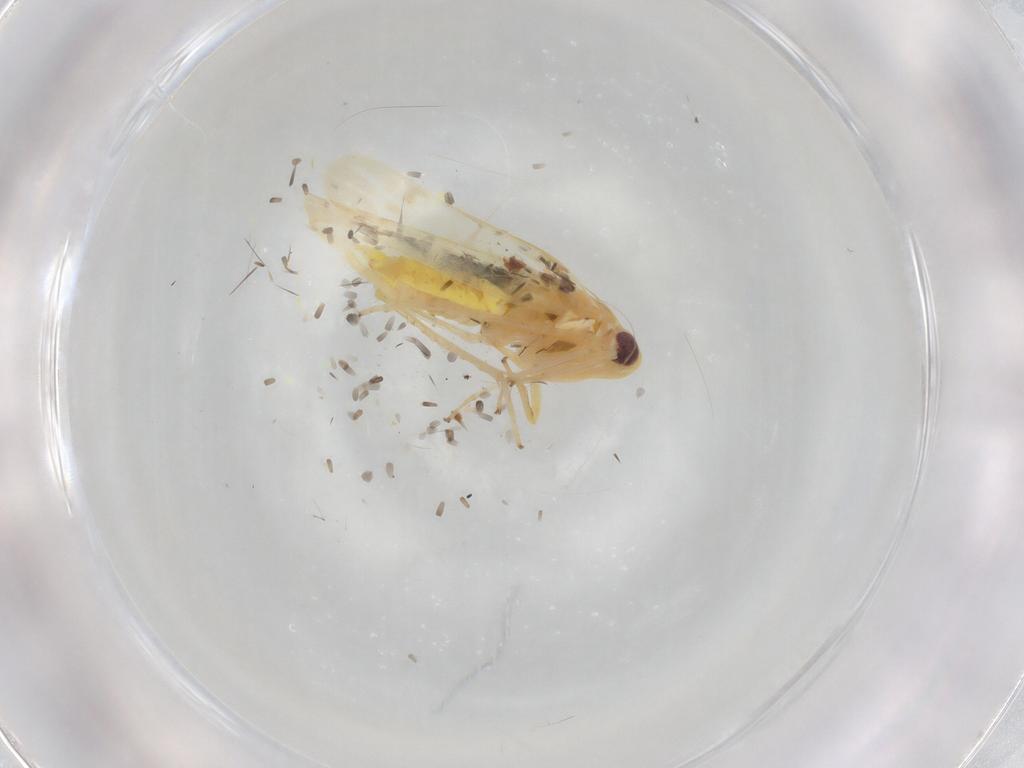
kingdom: Animalia
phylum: Arthropoda
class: Insecta
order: Hemiptera
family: Cicadellidae
